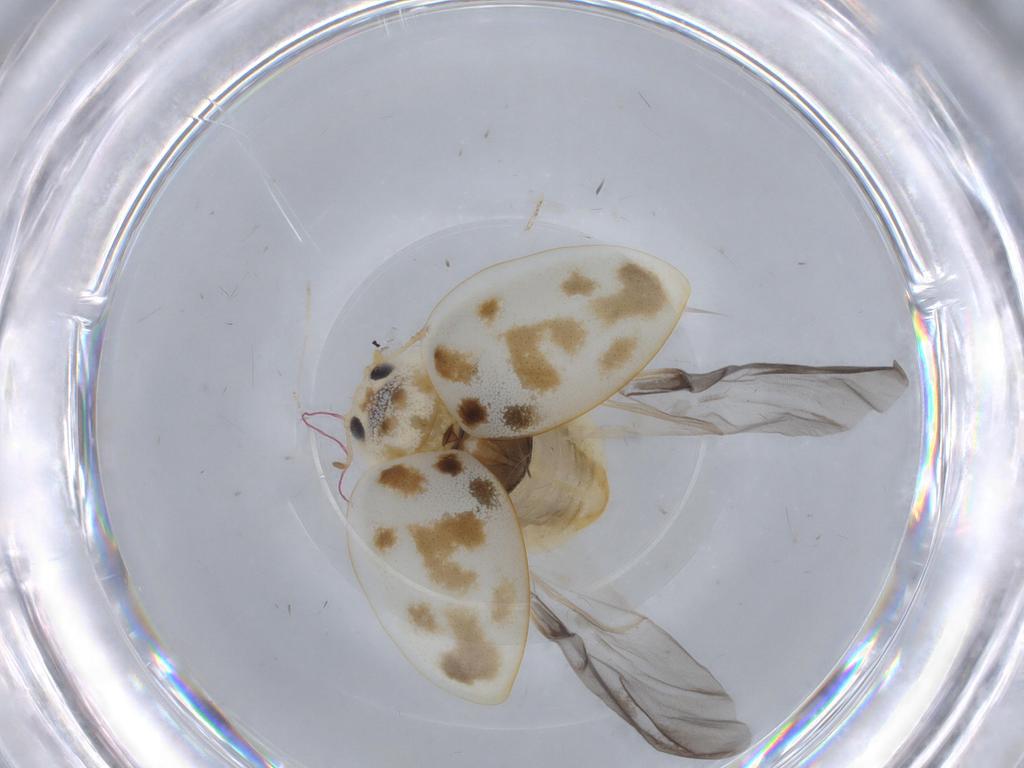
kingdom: Animalia
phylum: Arthropoda
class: Insecta
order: Coleoptera
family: Coccinellidae
